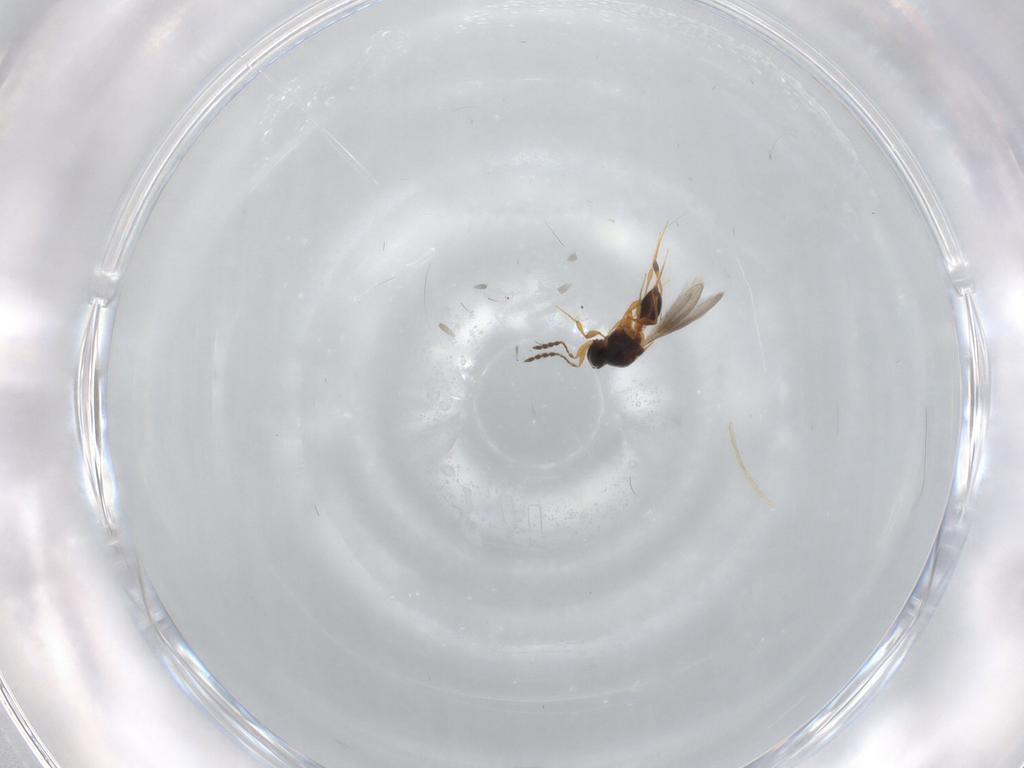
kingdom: Animalia
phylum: Arthropoda
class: Insecta
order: Hymenoptera
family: Platygastridae
